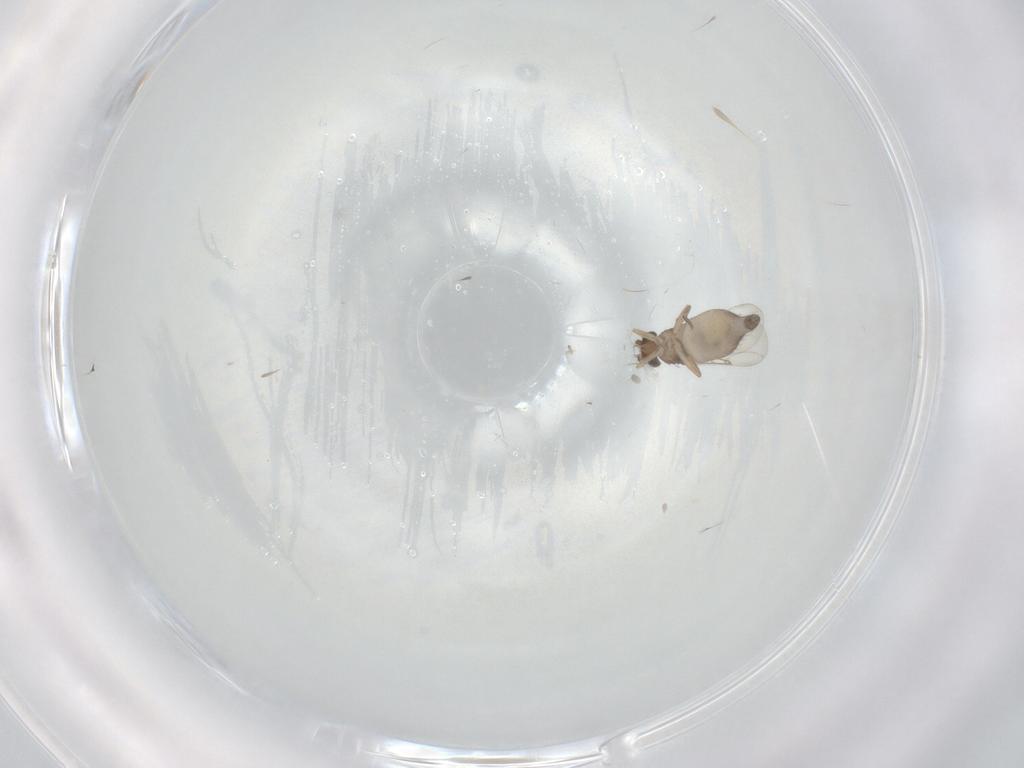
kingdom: Animalia
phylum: Arthropoda
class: Insecta
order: Diptera
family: Phoridae
